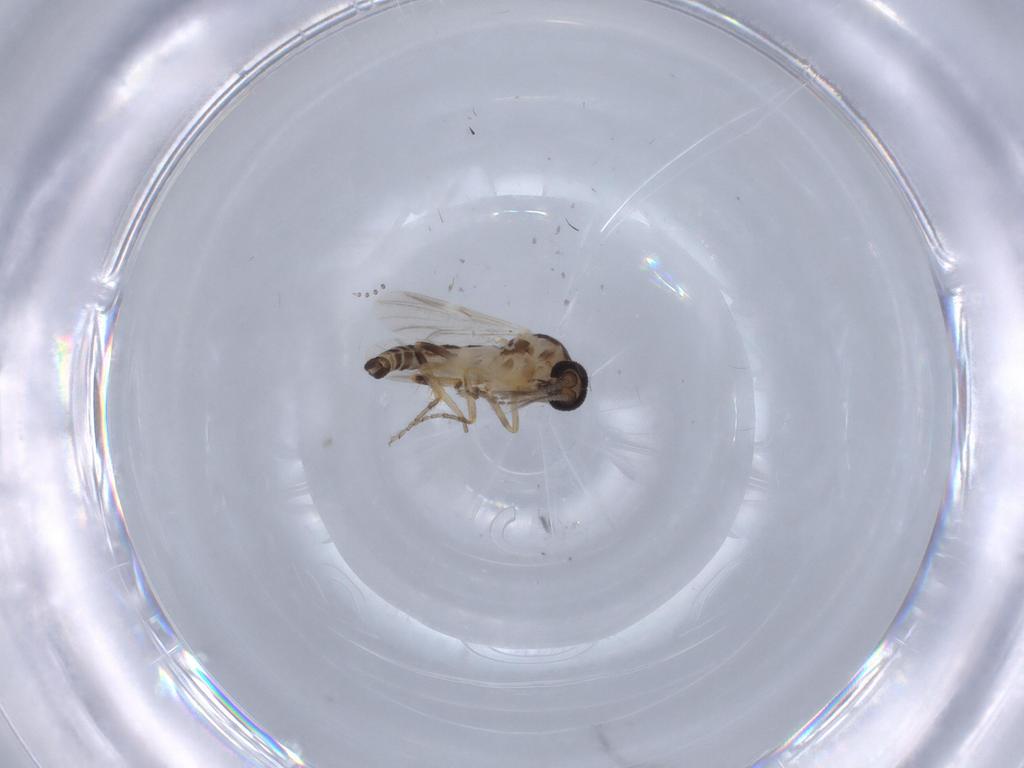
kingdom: Animalia
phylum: Arthropoda
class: Insecta
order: Diptera
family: Ceratopogonidae
